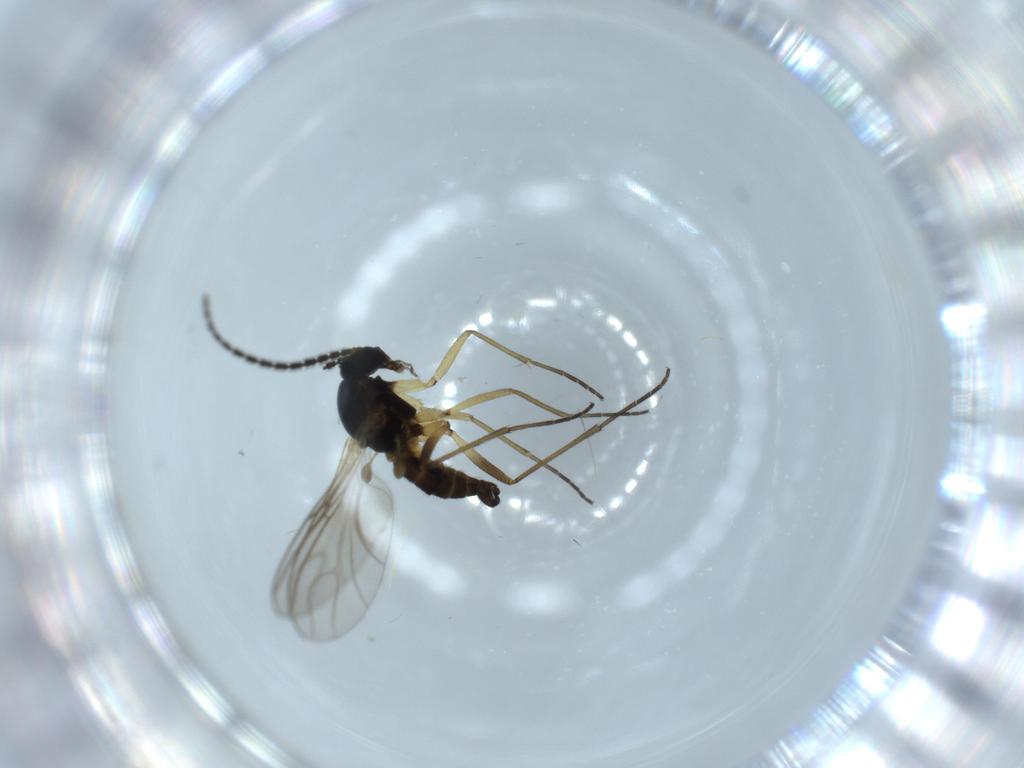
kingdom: Animalia
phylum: Arthropoda
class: Insecta
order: Diptera
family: Sciaridae
